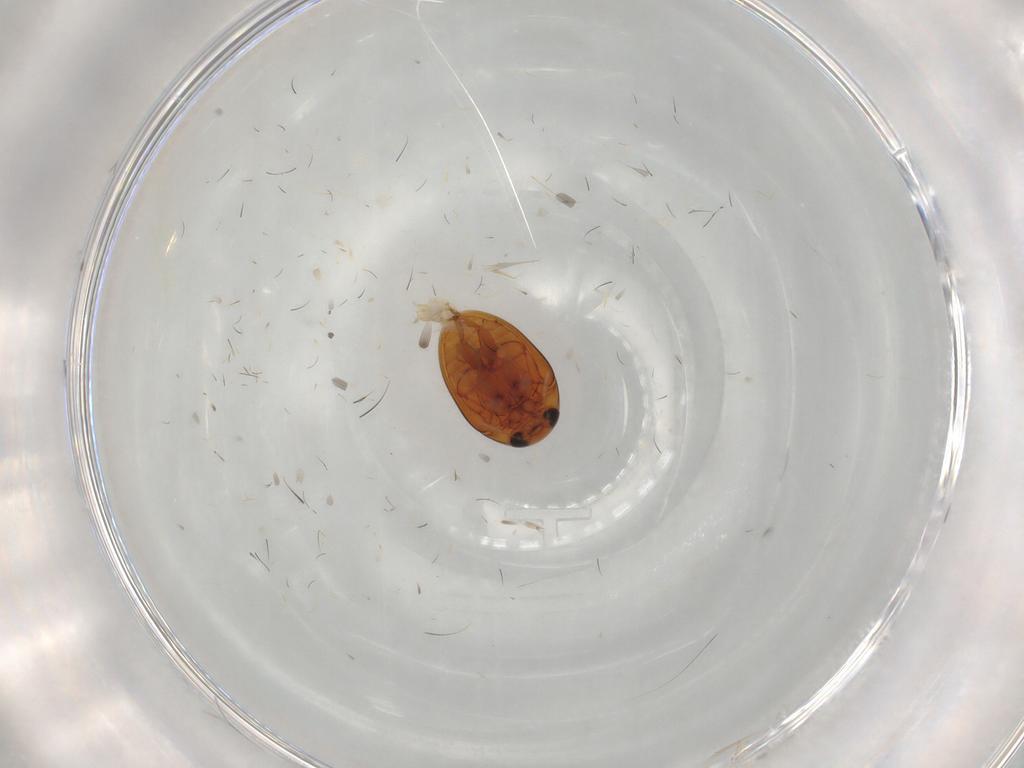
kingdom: Animalia
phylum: Arthropoda
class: Insecta
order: Coleoptera
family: Phalacridae
